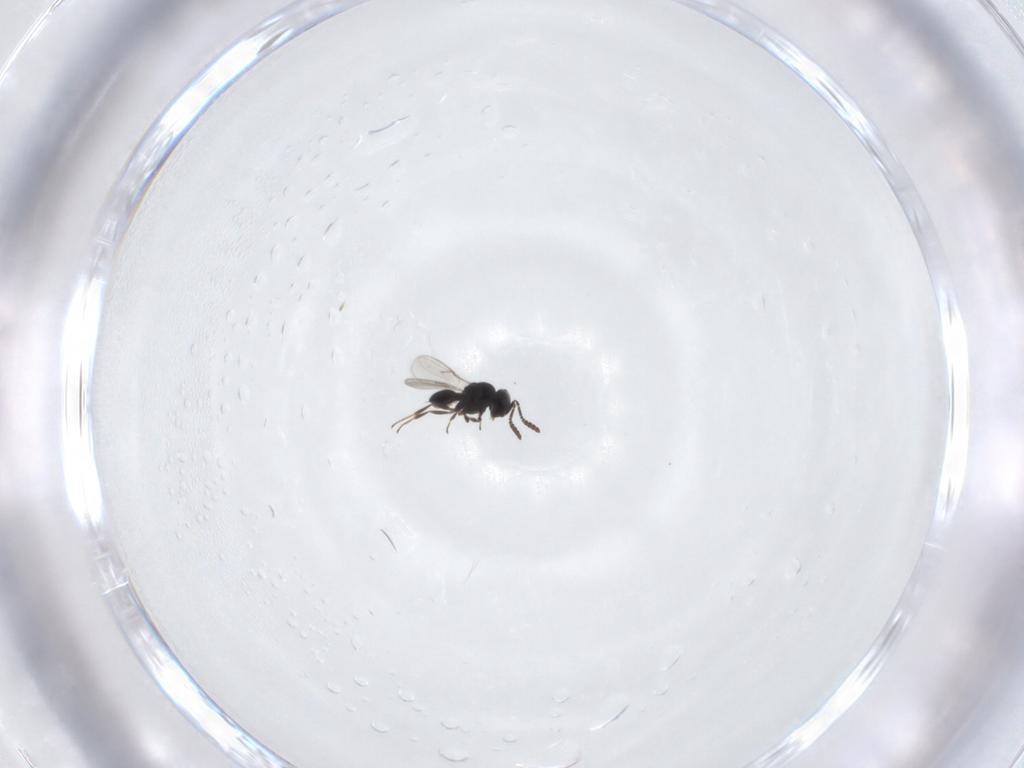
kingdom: Animalia
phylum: Arthropoda
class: Insecta
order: Hymenoptera
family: Scelionidae
